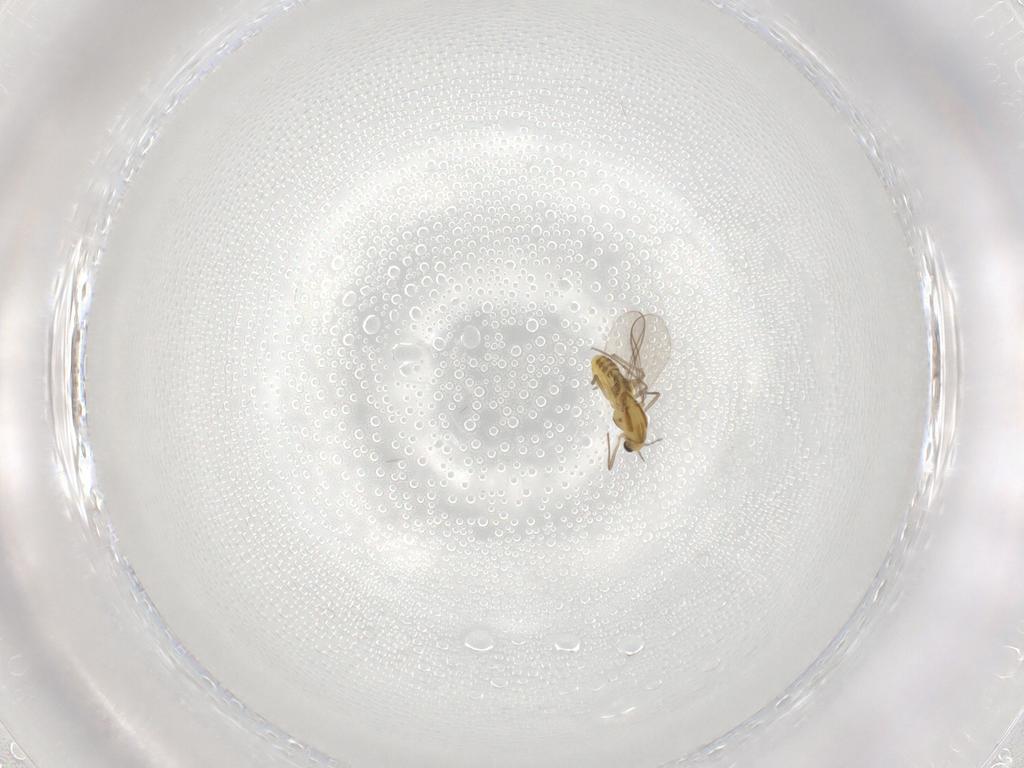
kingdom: Animalia
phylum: Arthropoda
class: Insecta
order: Diptera
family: Chironomidae
